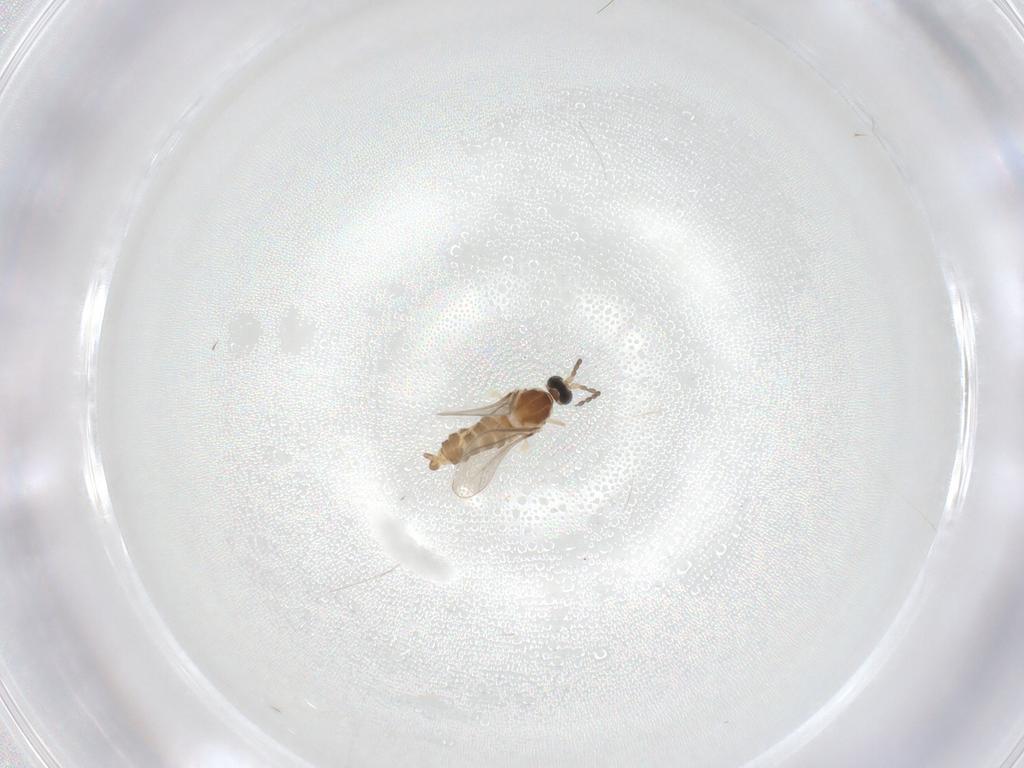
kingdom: Animalia
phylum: Arthropoda
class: Insecta
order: Diptera
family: Cecidomyiidae
